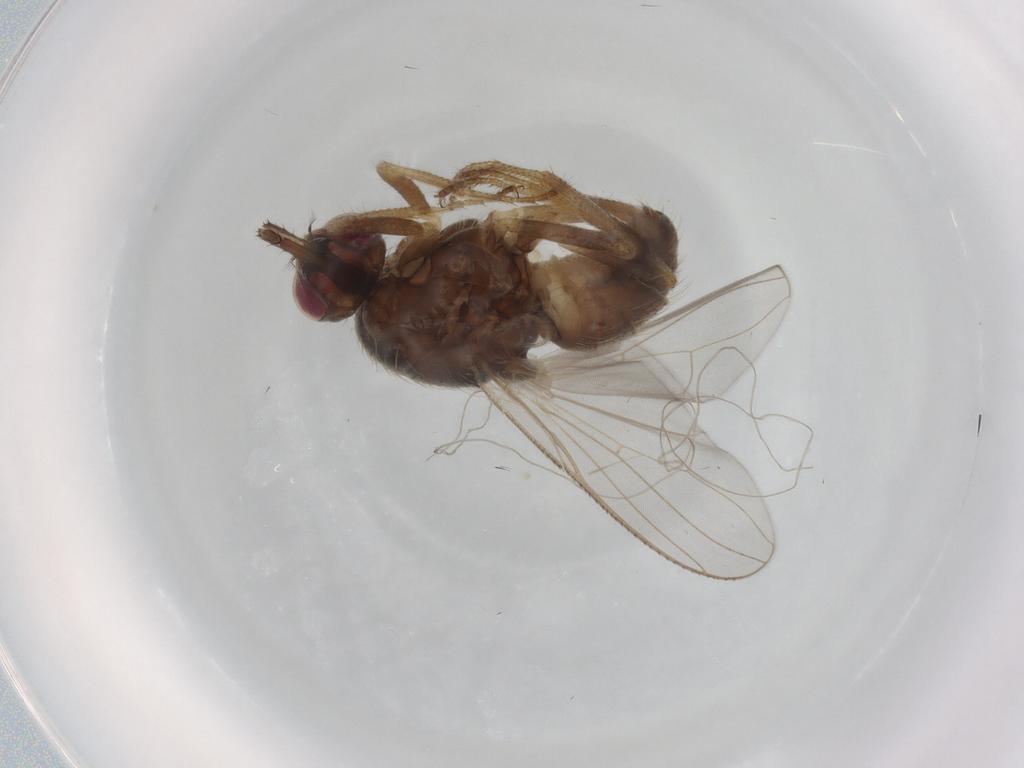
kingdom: Animalia
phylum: Arthropoda
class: Insecta
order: Diptera
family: Muscidae
